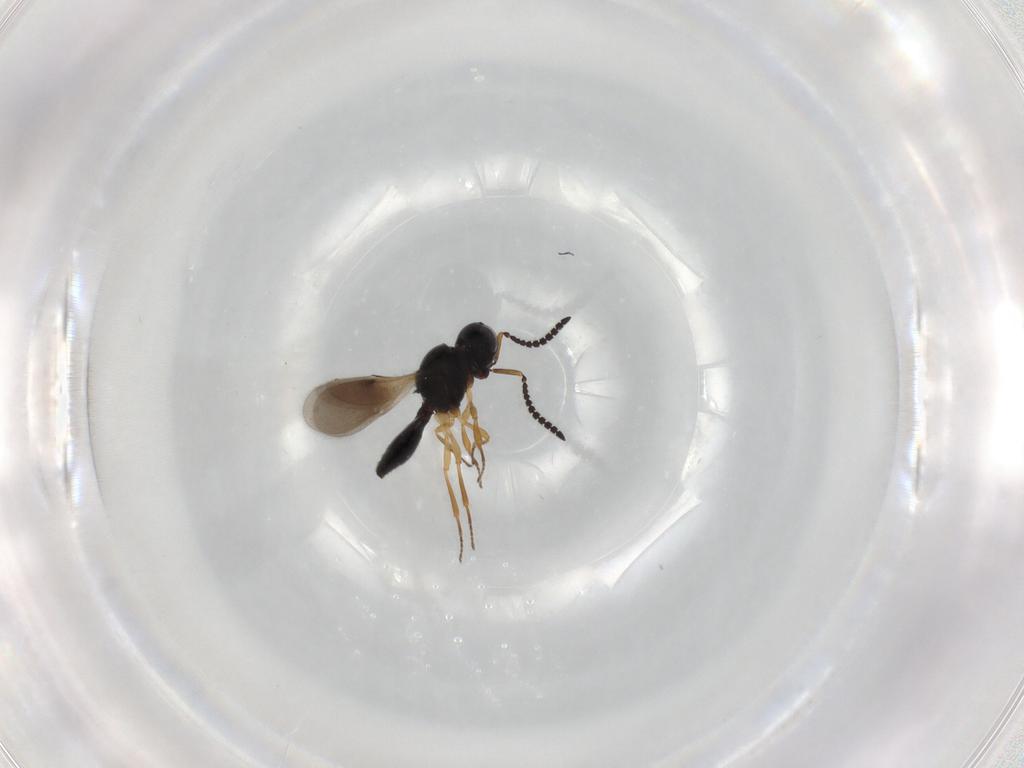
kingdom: Animalia
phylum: Arthropoda
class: Insecta
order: Hymenoptera
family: Scelionidae
